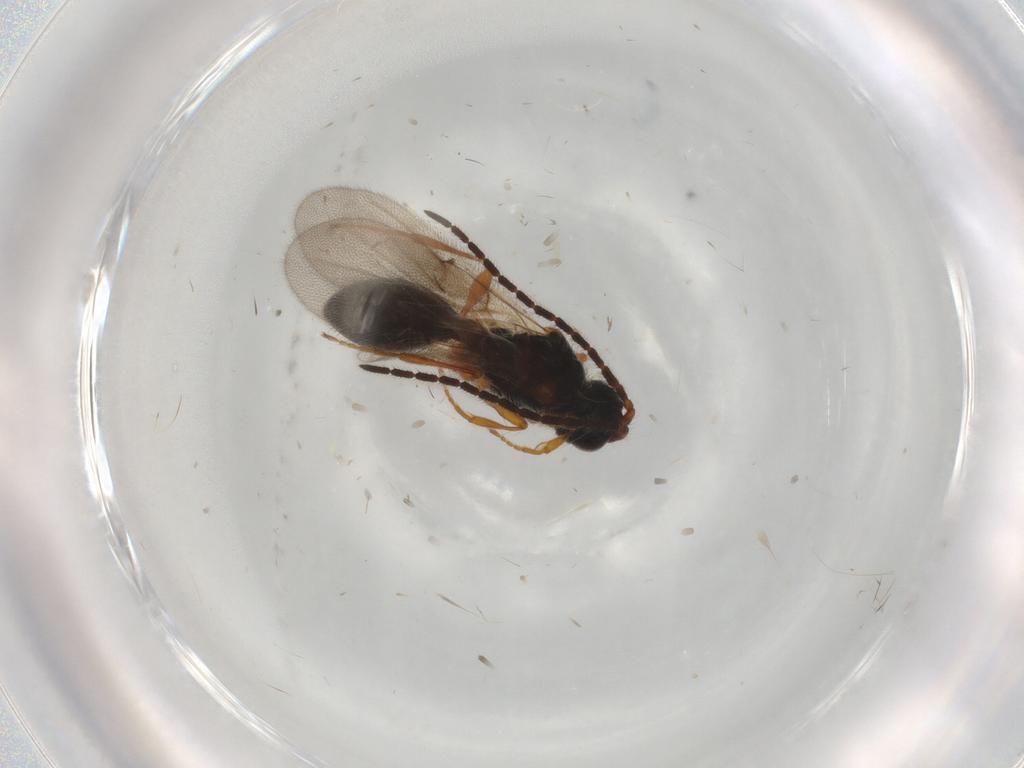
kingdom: Animalia
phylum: Arthropoda
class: Insecta
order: Hymenoptera
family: Diapriidae
